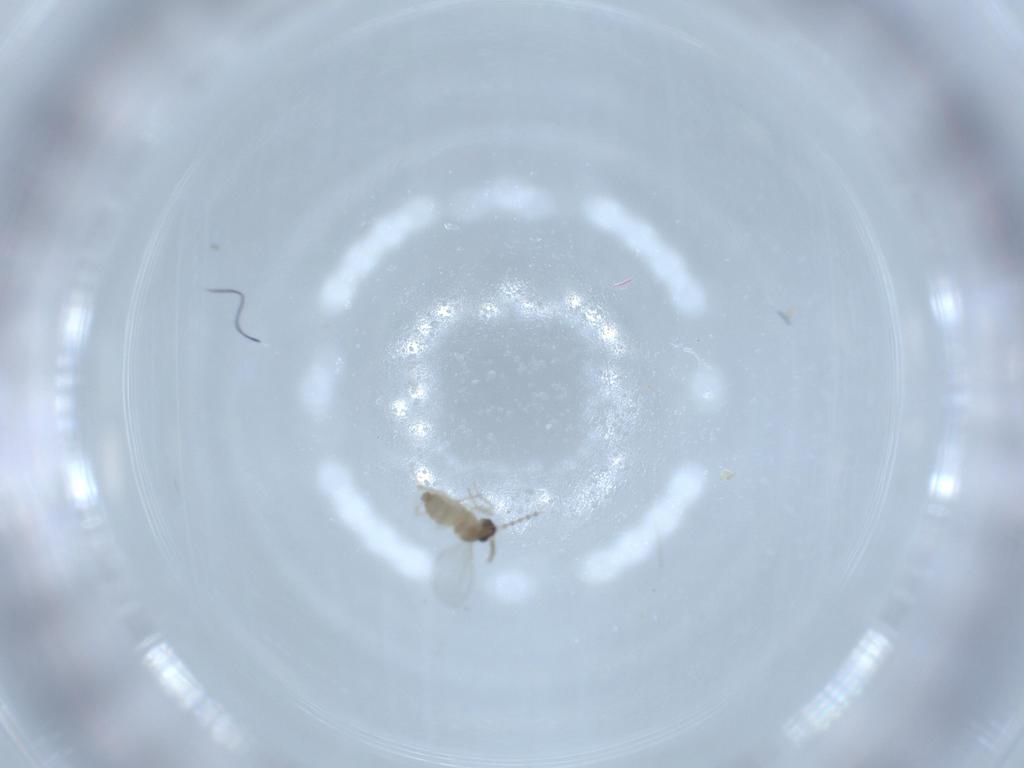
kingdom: Animalia
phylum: Arthropoda
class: Insecta
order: Diptera
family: Cecidomyiidae
